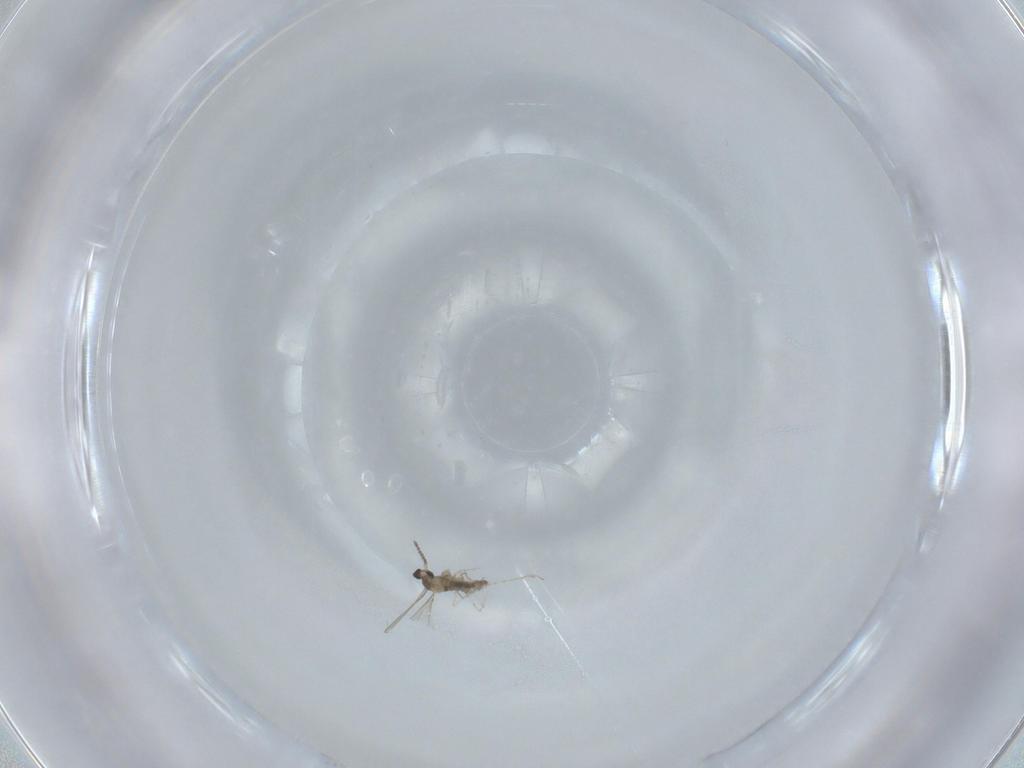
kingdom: Animalia
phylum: Arthropoda
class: Insecta
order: Diptera
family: Cecidomyiidae
